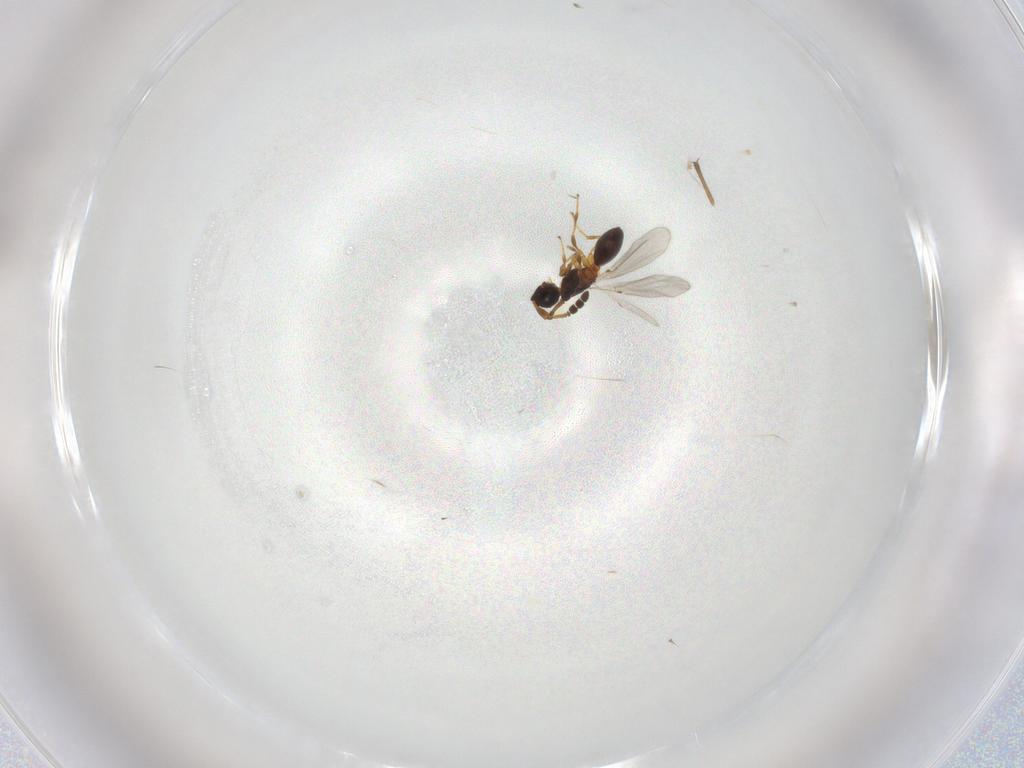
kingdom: Animalia
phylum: Arthropoda
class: Insecta
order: Hymenoptera
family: Diapriidae
